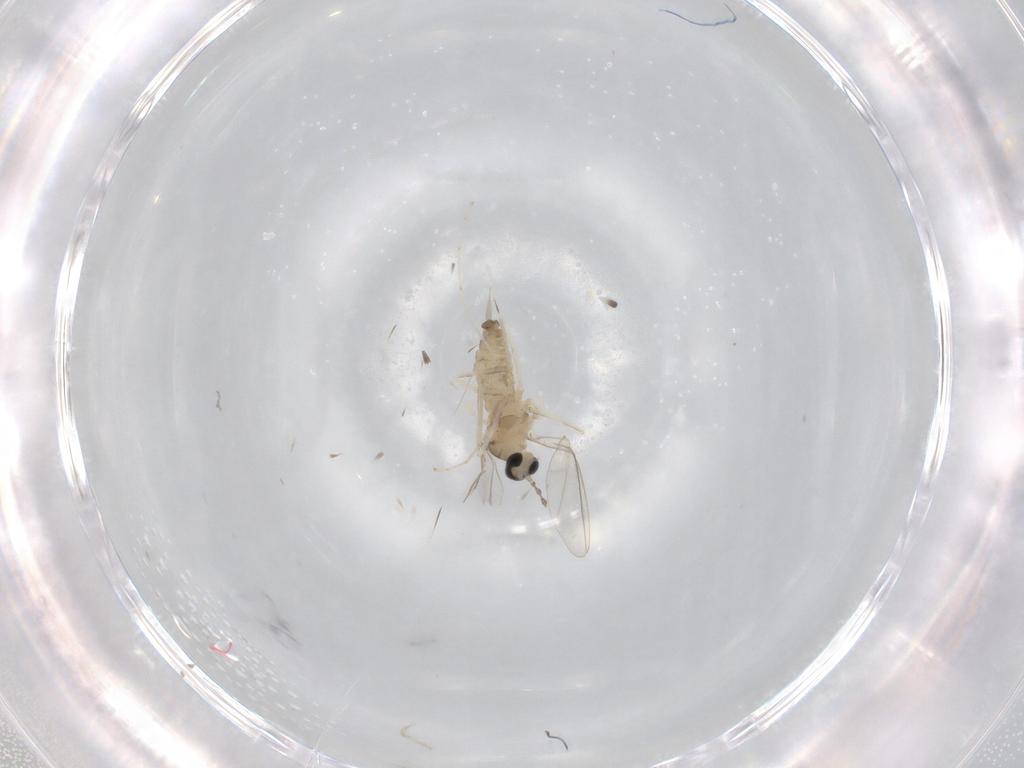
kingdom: Animalia
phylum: Arthropoda
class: Insecta
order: Diptera
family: Cecidomyiidae
